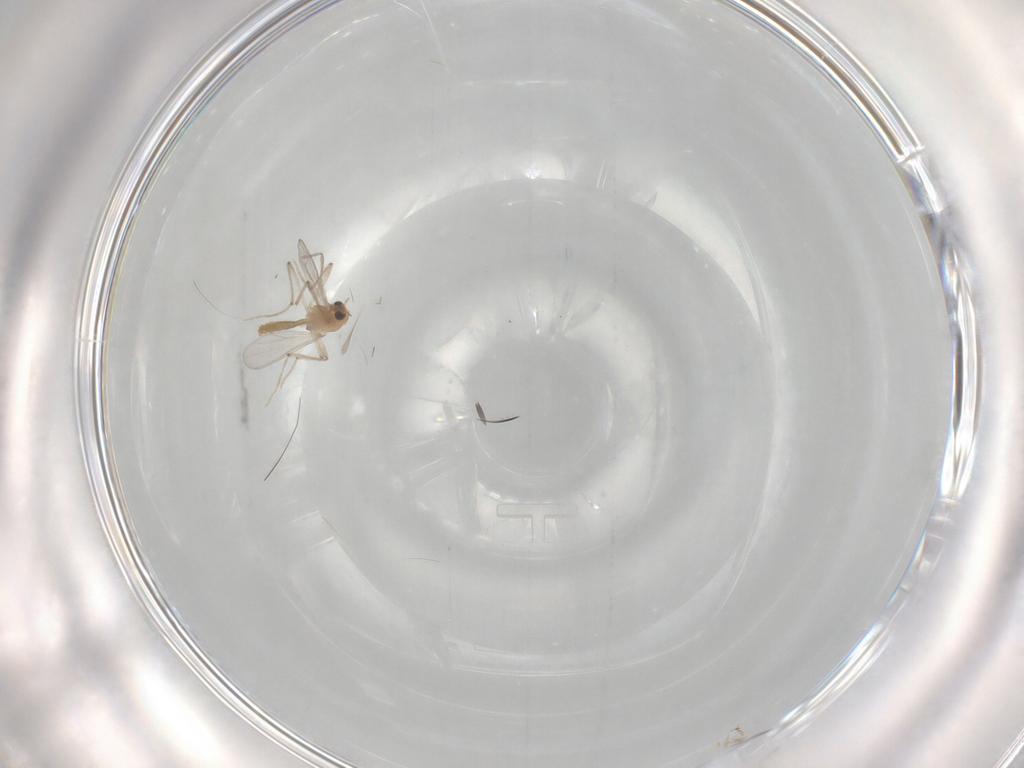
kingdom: Animalia
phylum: Arthropoda
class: Insecta
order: Diptera
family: Chironomidae
